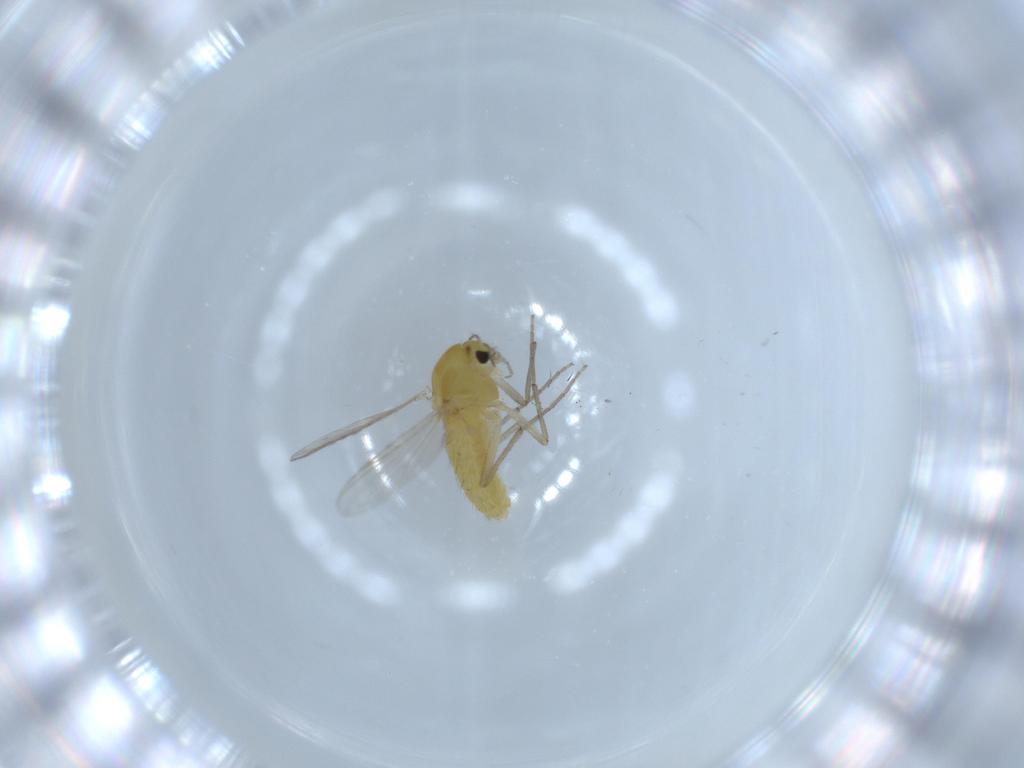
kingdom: Animalia
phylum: Arthropoda
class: Insecta
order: Diptera
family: Chironomidae
